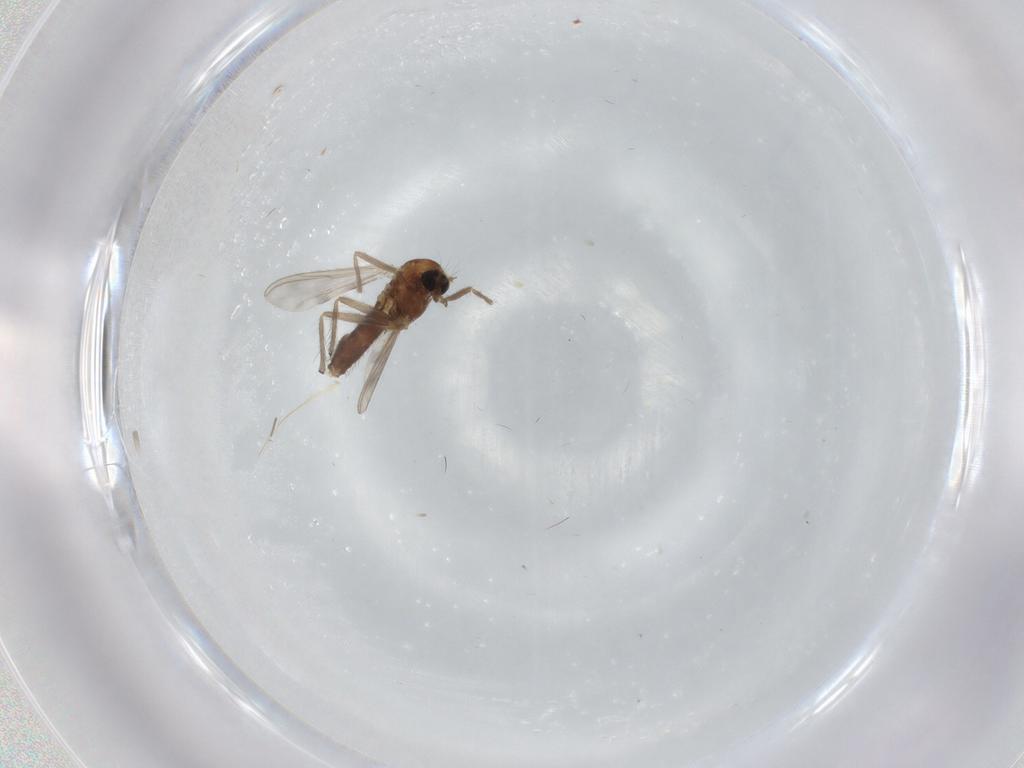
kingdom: Animalia
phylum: Arthropoda
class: Insecta
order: Diptera
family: Chironomidae
